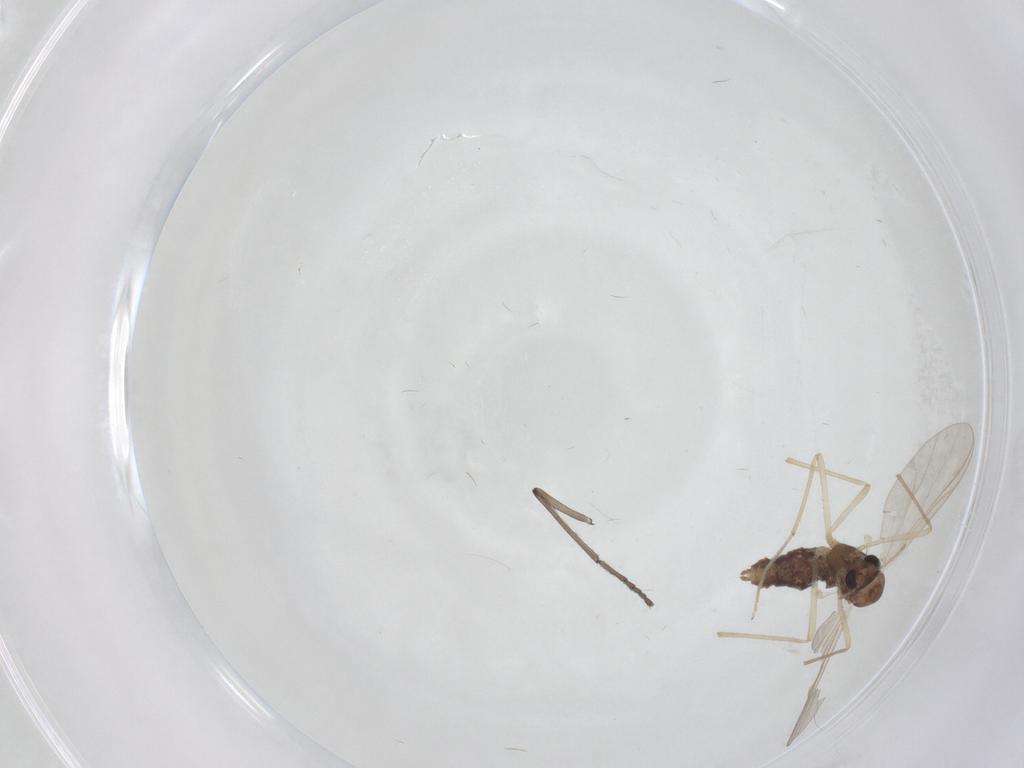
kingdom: Animalia
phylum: Arthropoda
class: Insecta
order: Diptera
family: Chironomidae
